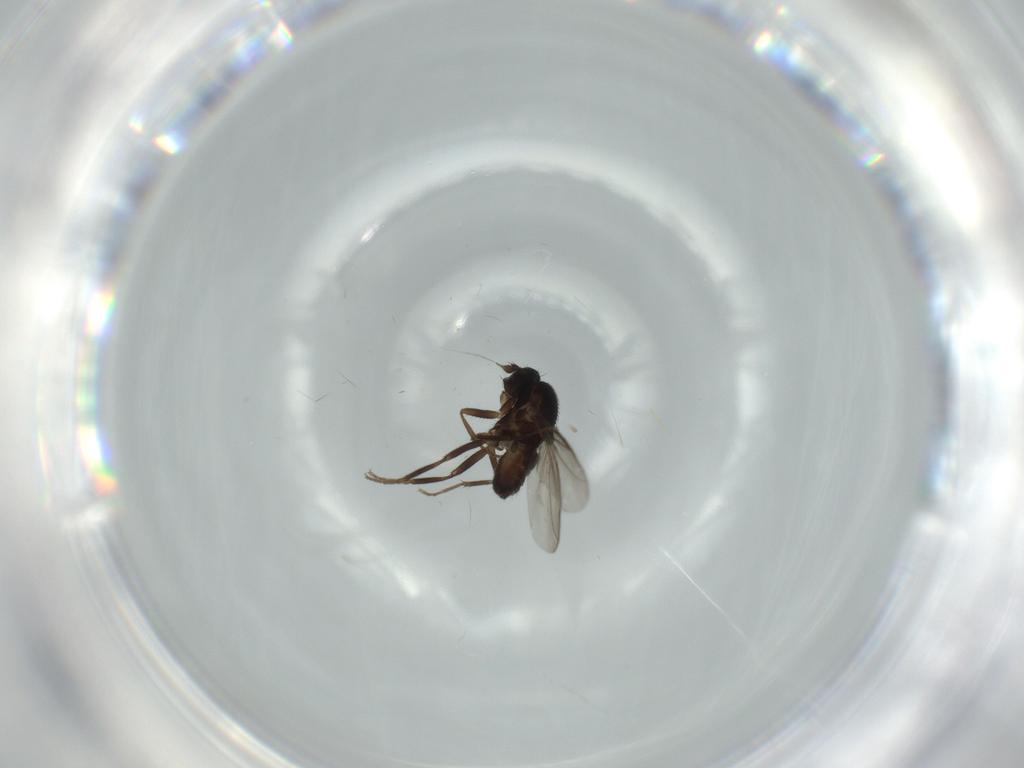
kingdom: Animalia
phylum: Arthropoda
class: Insecta
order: Diptera
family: Sphaeroceridae
